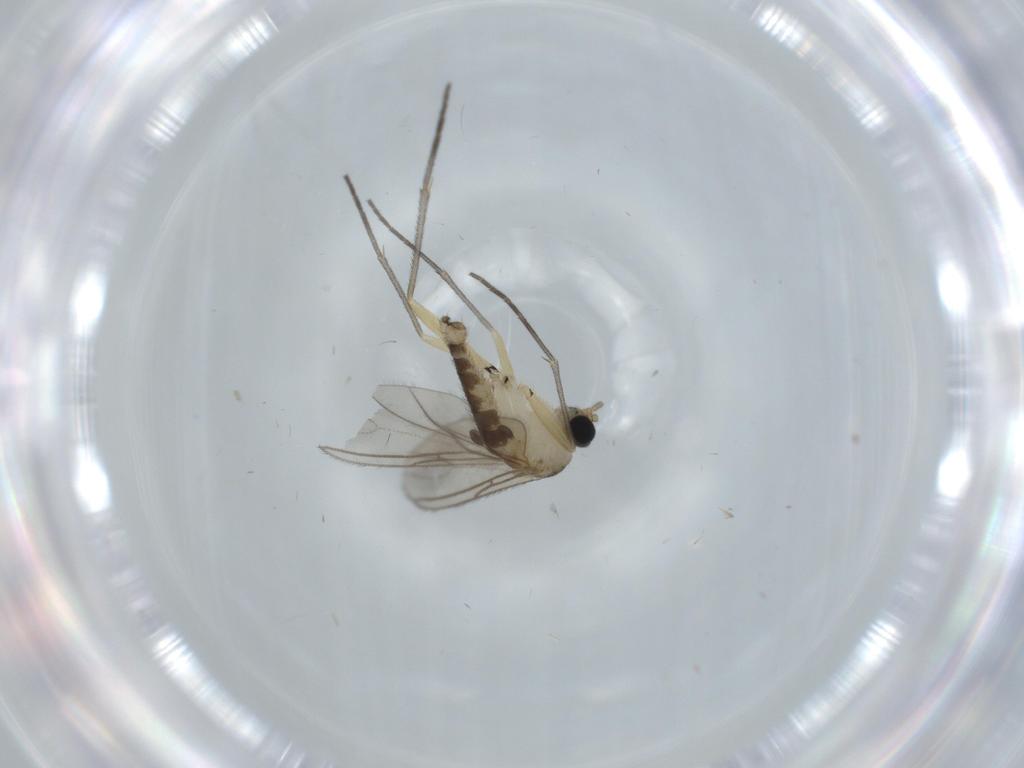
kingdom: Animalia
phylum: Arthropoda
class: Insecta
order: Diptera
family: Sciaridae
